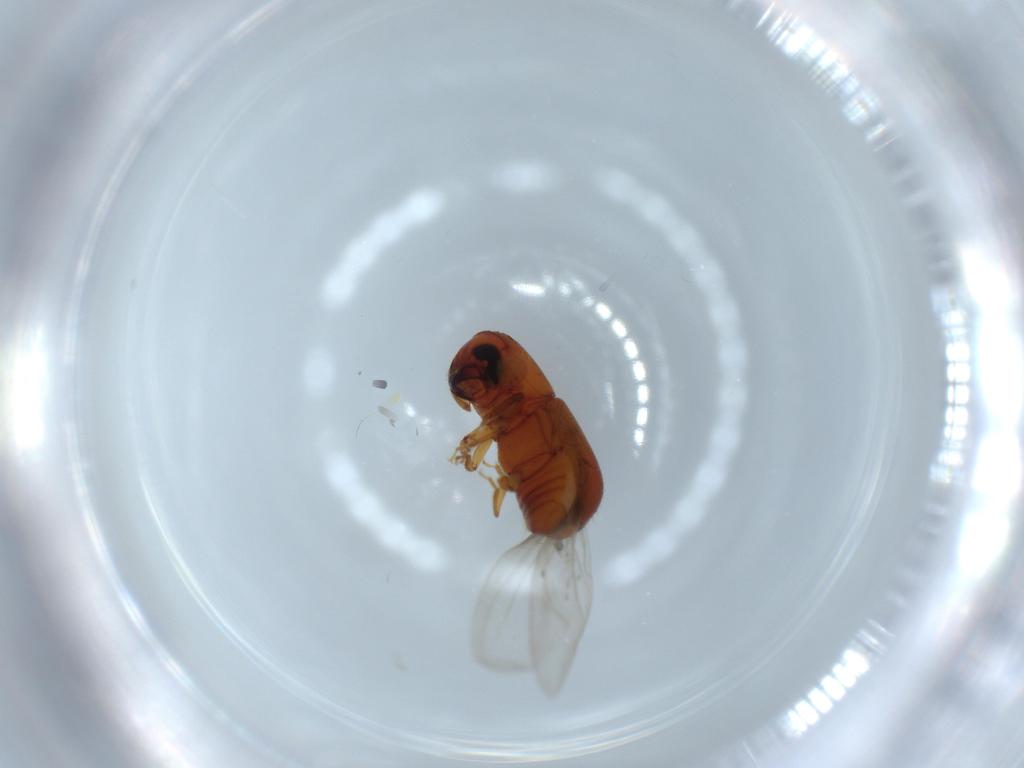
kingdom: Animalia
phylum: Arthropoda
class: Insecta
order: Coleoptera
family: Curculionidae
